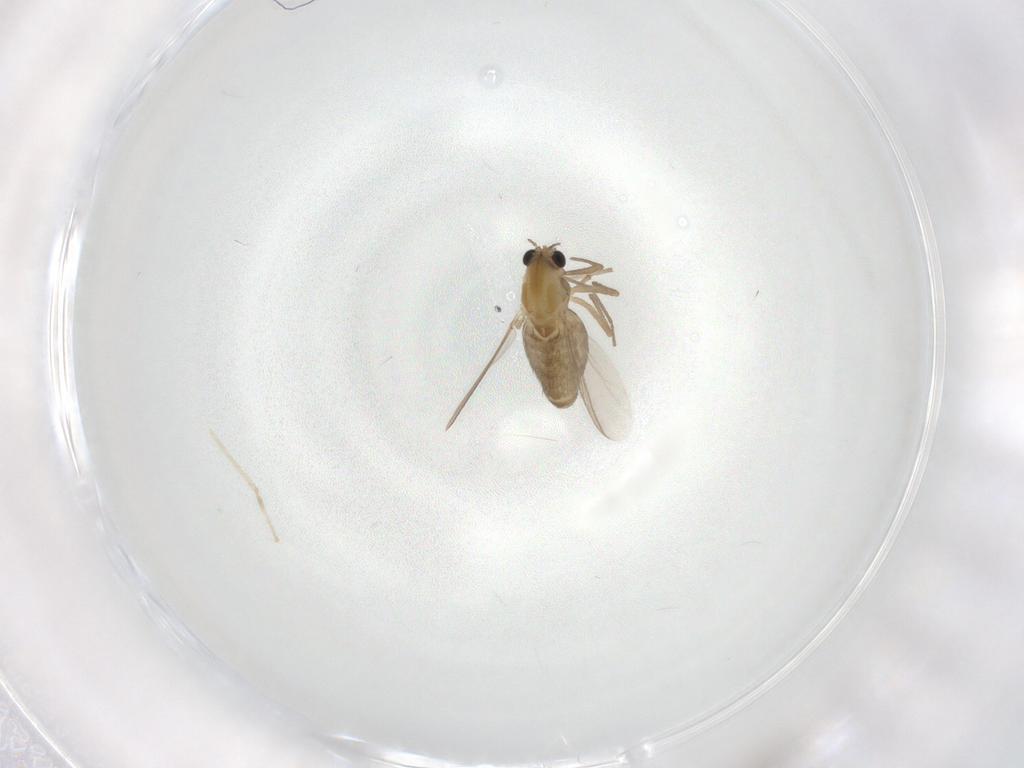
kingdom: Animalia
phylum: Arthropoda
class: Insecta
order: Diptera
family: Chironomidae
